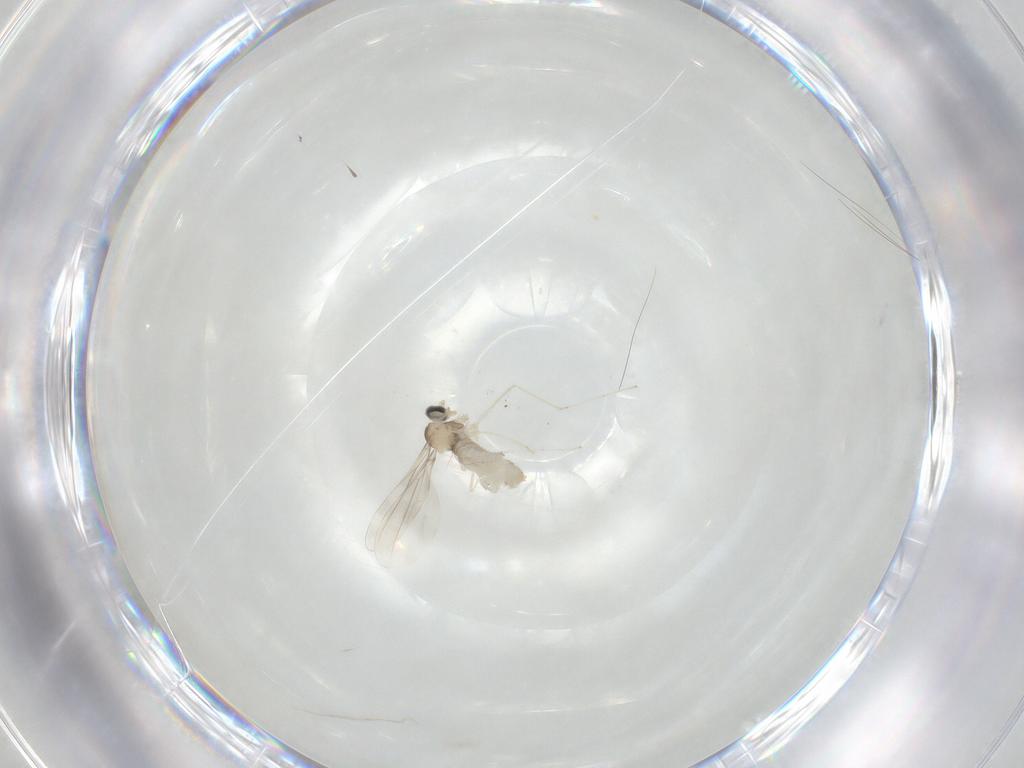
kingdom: Animalia
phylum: Arthropoda
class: Insecta
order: Diptera
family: Cecidomyiidae
